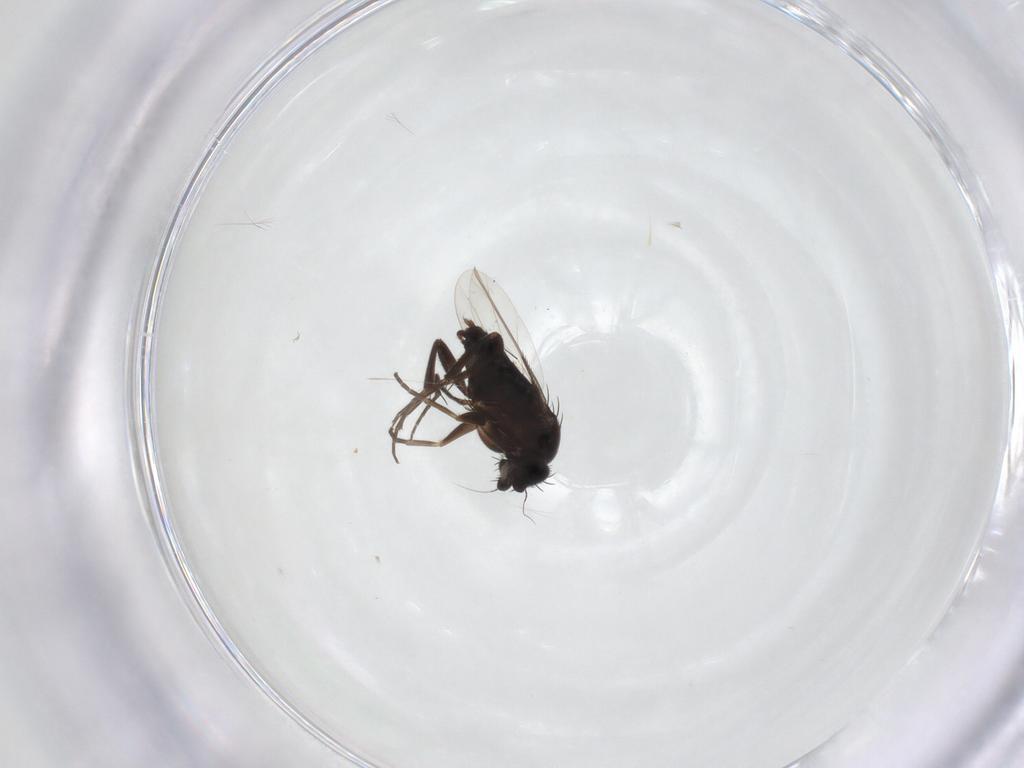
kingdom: Animalia
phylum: Arthropoda
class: Insecta
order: Diptera
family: Phoridae
